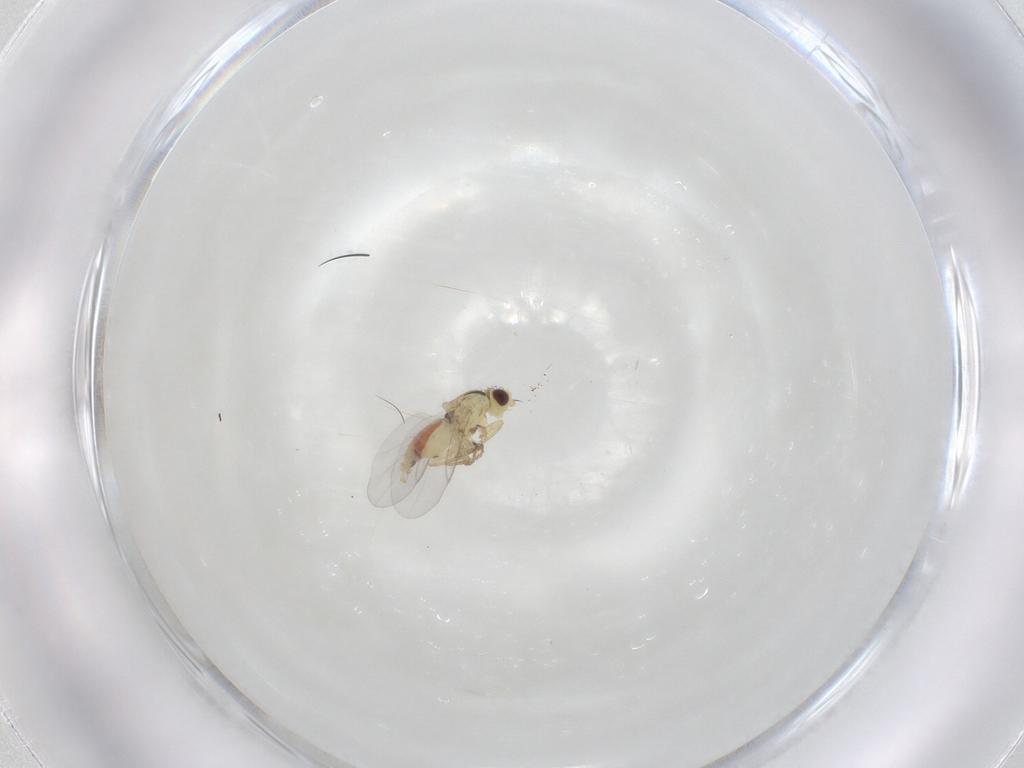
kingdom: Animalia
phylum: Arthropoda
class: Insecta
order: Diptera
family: Agromyzidae
